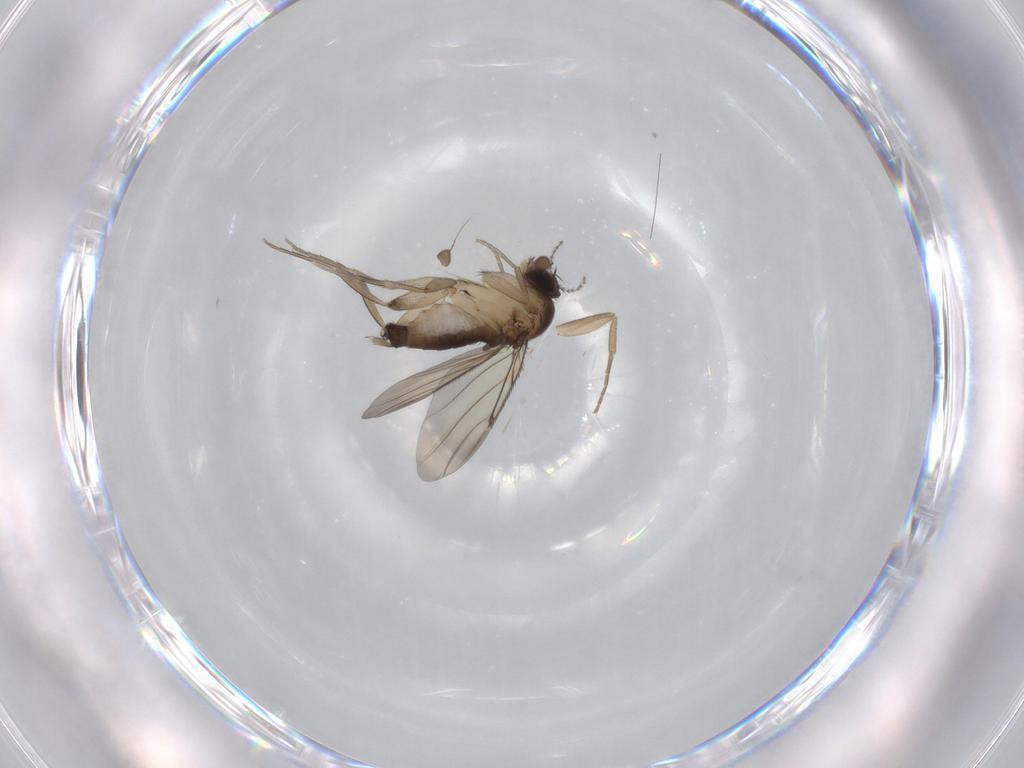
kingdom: Animalia
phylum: Arthropoda
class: Insecta
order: Diptera
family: Phoridae
